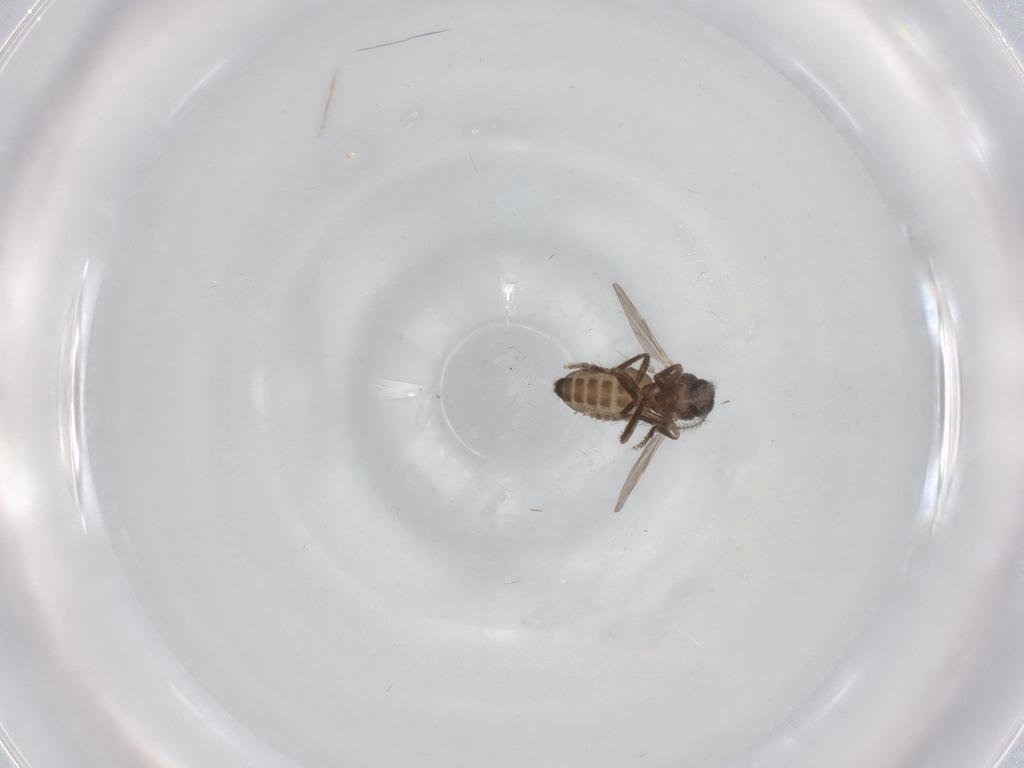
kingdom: Animalia
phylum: Arthropoda
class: Insecta
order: Diptera
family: Ceratopogonidae
